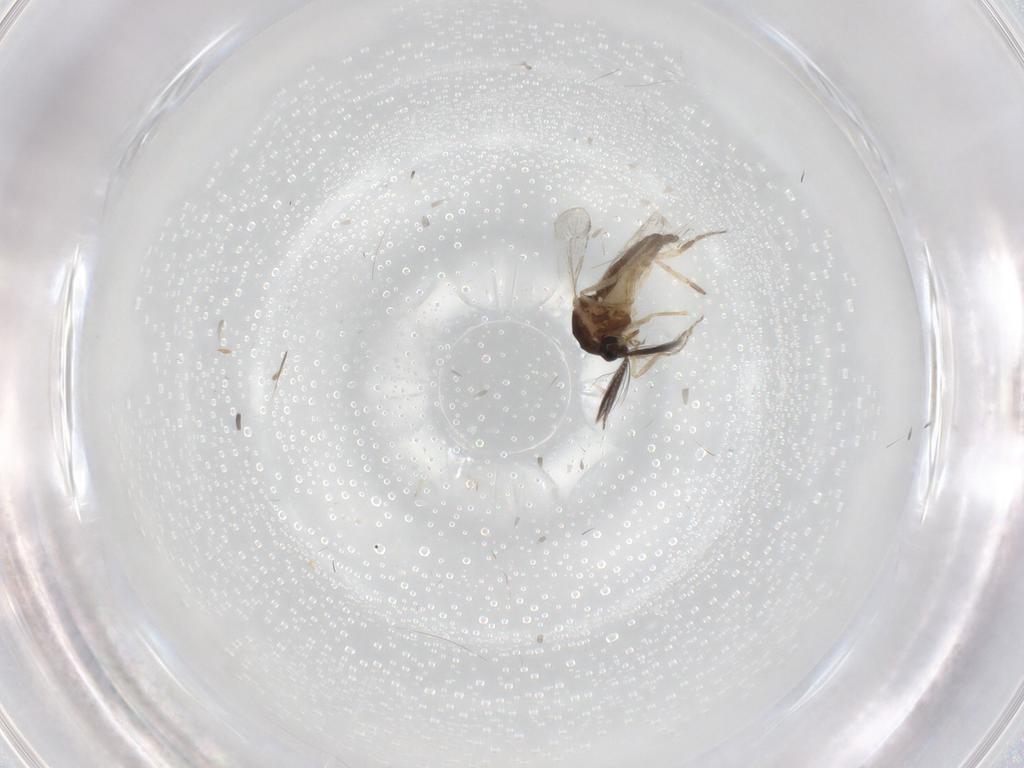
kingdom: Animalia
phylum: Arthropoda
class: Insecta
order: Diptera
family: Ceratopogonidae
